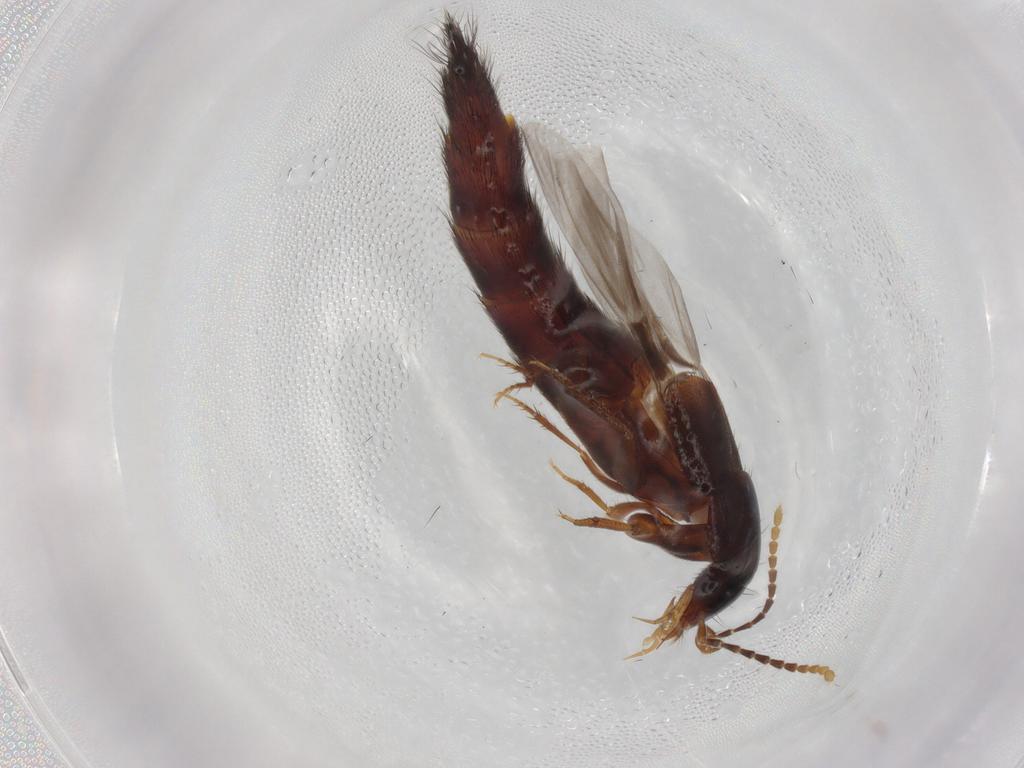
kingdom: Animalia
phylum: Arthropoda
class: Insecta
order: Coleoptera
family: Staphylinidae
